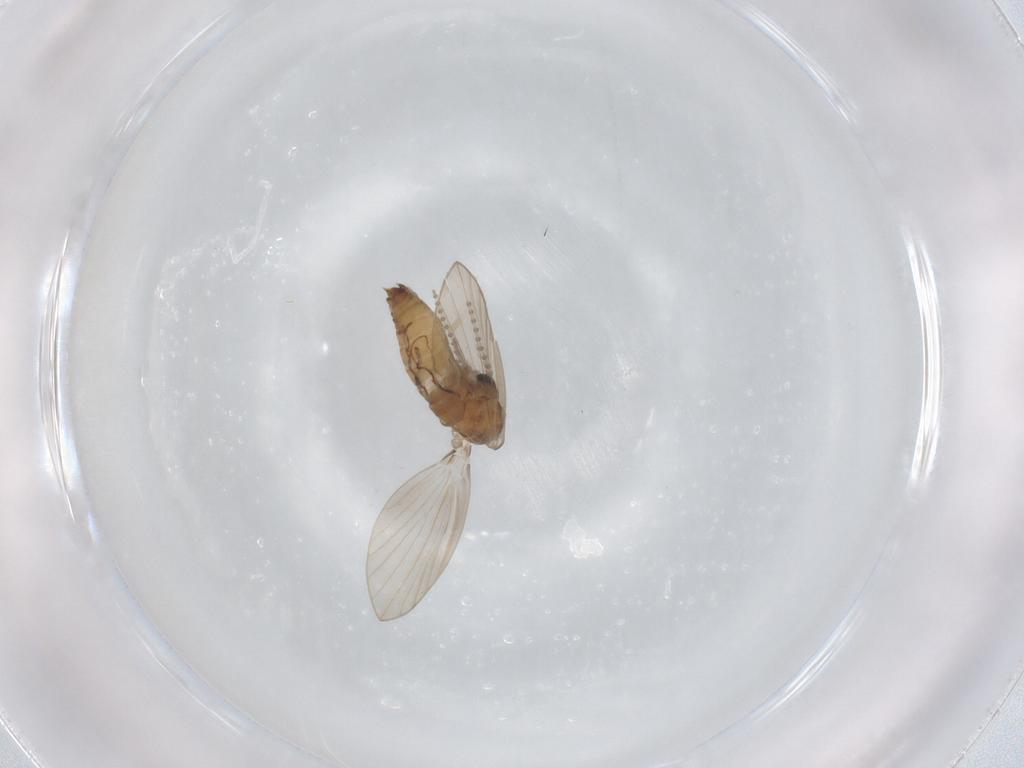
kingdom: Animalia
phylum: Arthropoda
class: Insecta
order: Diptera
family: Psychodidae
